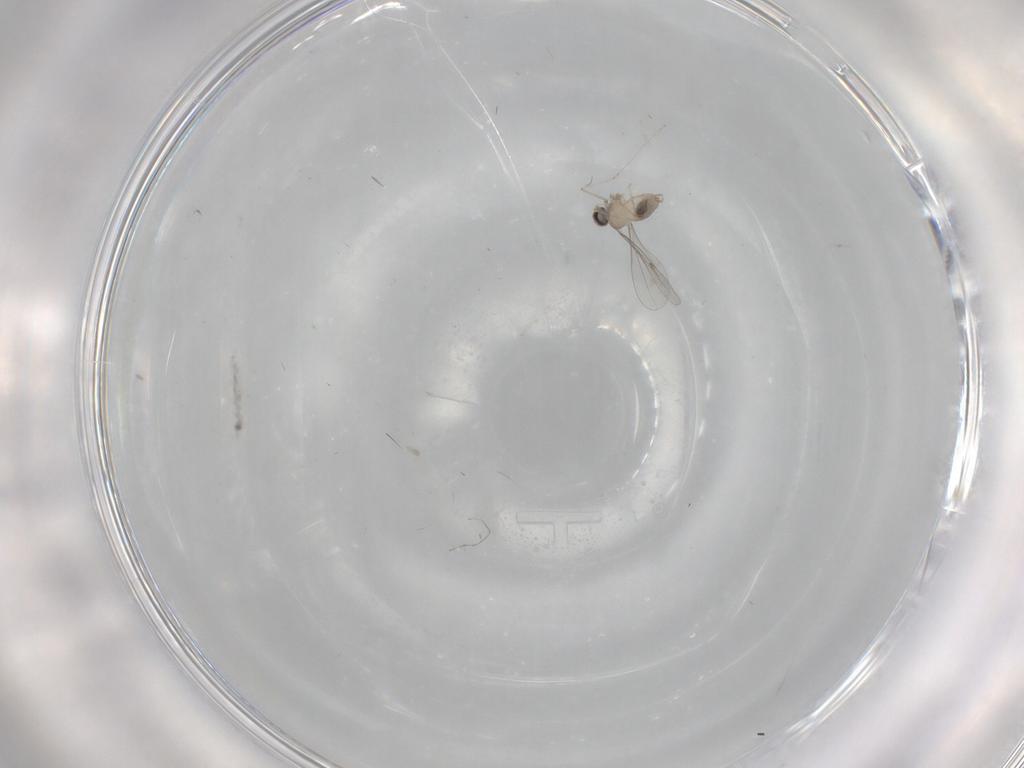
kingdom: Animalia
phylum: Arthropoda
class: Insecta
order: Diptera
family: Cecidomyiidae
